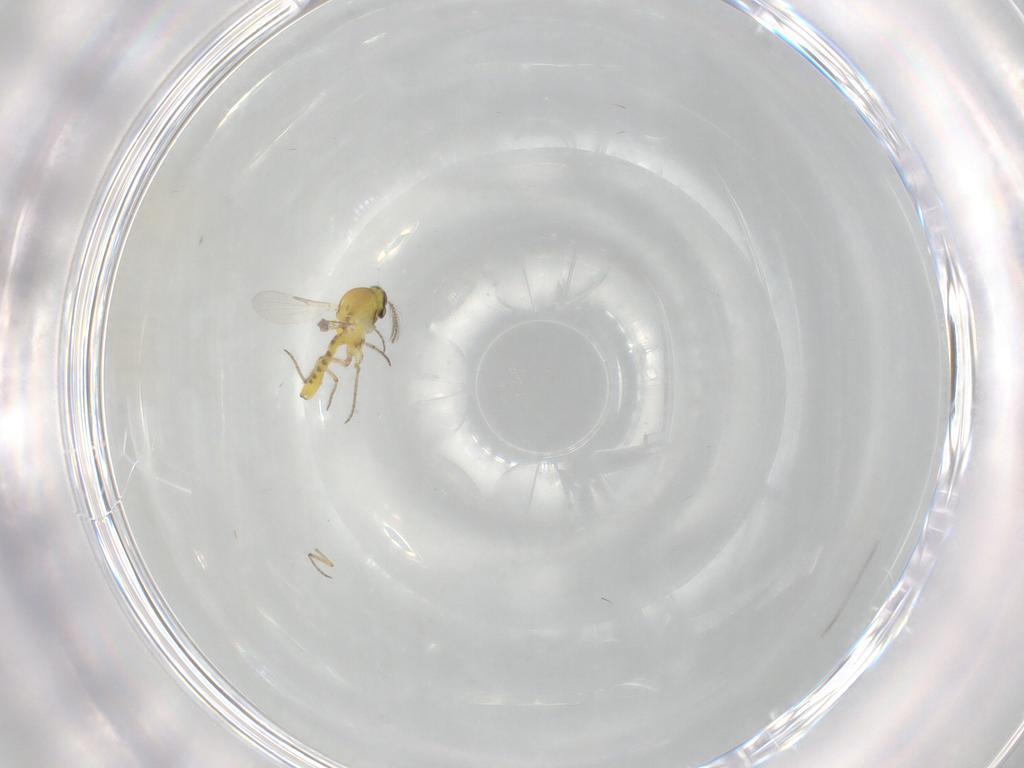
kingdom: Animalia
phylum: Arthropoda
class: Insecta
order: Diptera
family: Ceratopogonidae
